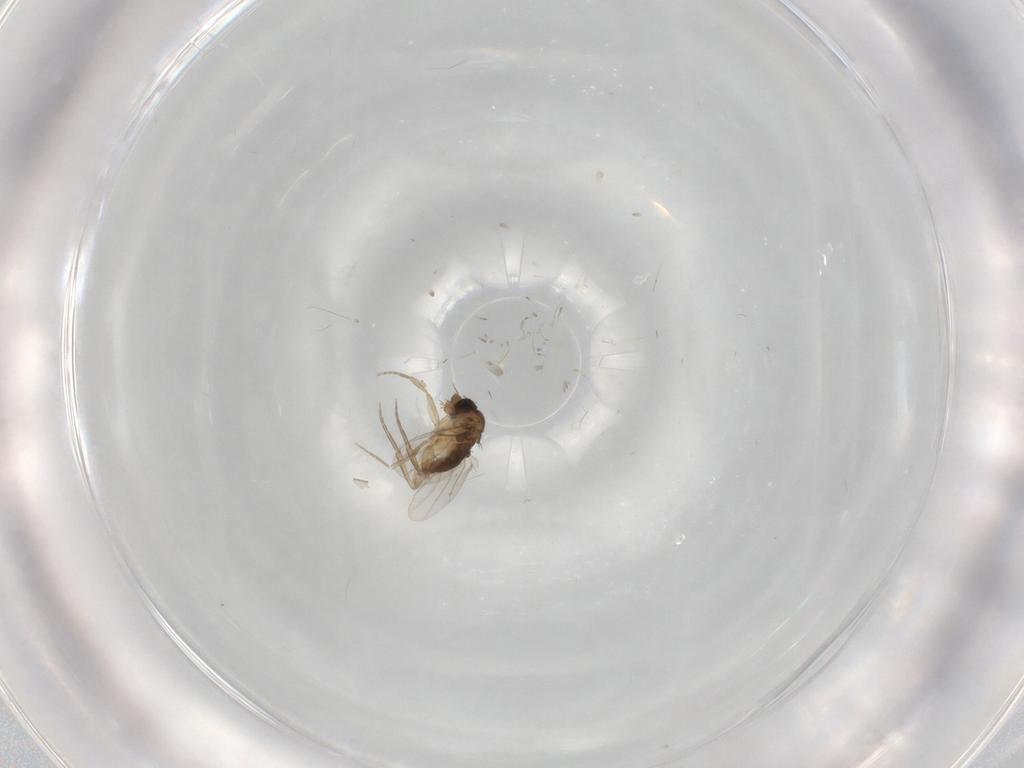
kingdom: Animalia
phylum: Arthropoda
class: Insecta
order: Diptera
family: Phoridae
